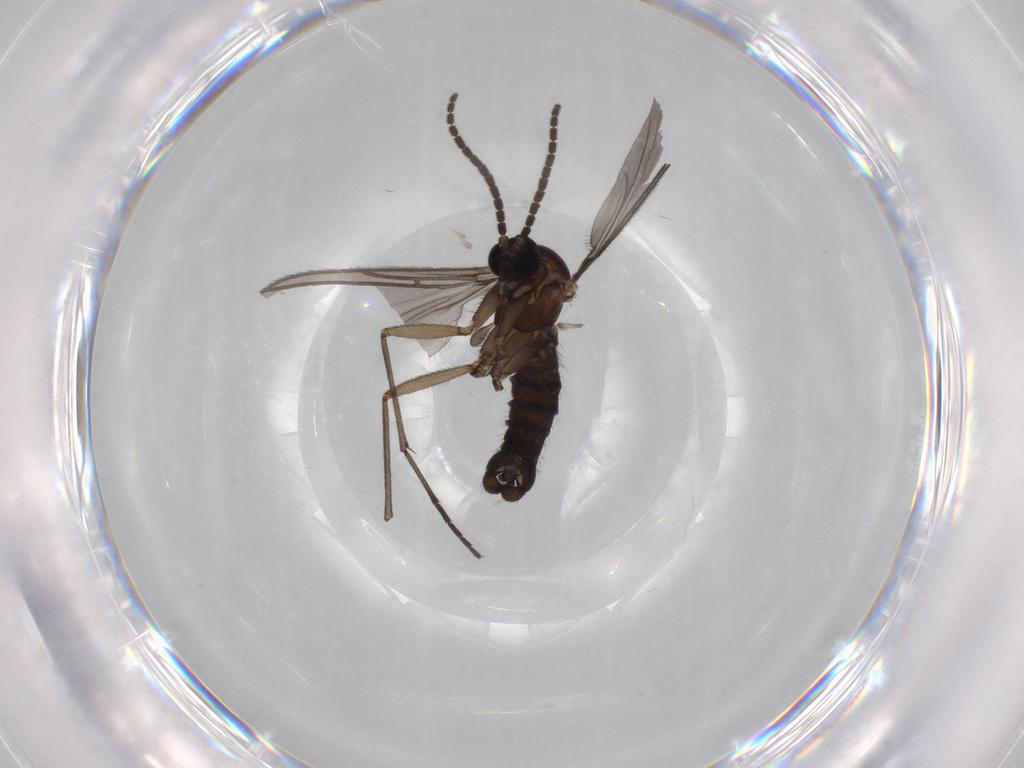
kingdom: Animalia
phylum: Arthropoda
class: Insecta
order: Diptera
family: Sciaridae
